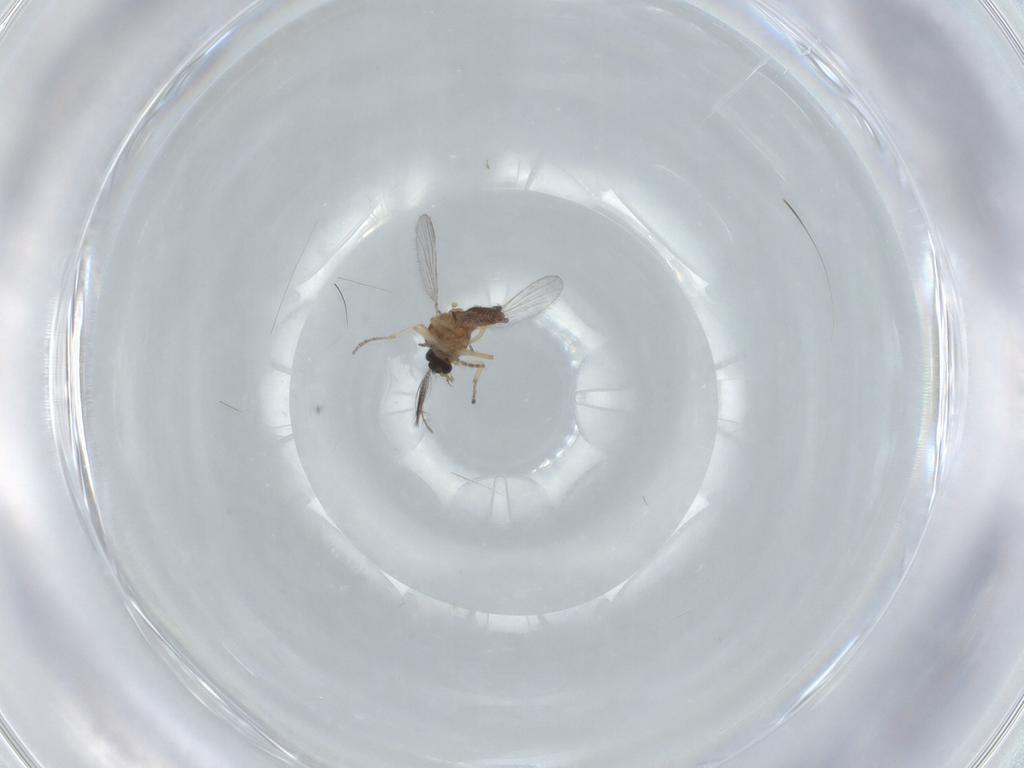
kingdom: Animalia
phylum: Arthropoda
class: Insecta
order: Diptera
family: Ceratopogonidae
